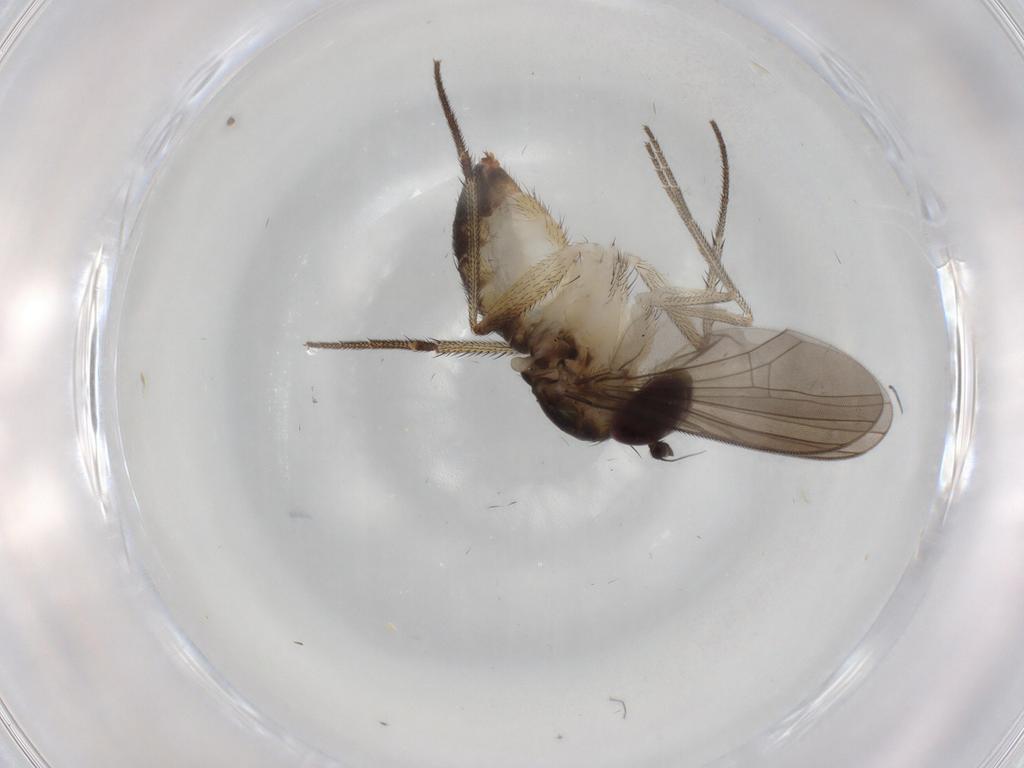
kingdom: Animalia
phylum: Arthropoda
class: Insecta
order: Diptera
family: Dolichopodidae
